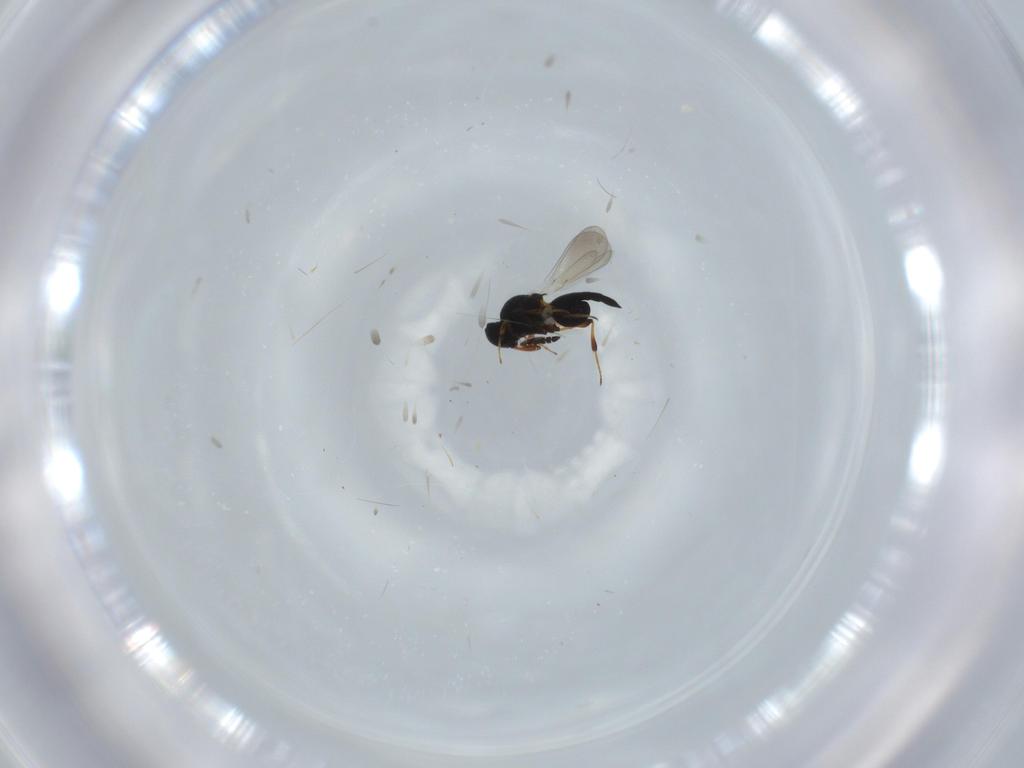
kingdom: Animalia
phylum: Arthropoda
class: Insecta
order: Hymenoptera
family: Platygastridae
